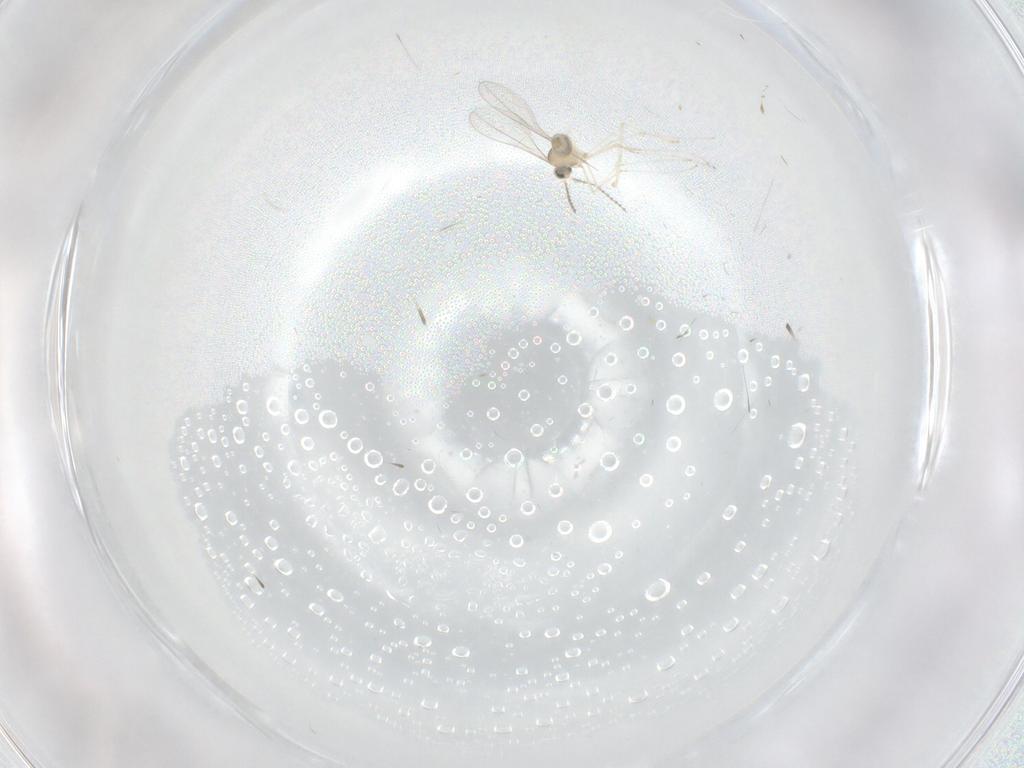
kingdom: Animalia
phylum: Arthropoda
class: Insecta
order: Diptera
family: Cecidomyiidae
